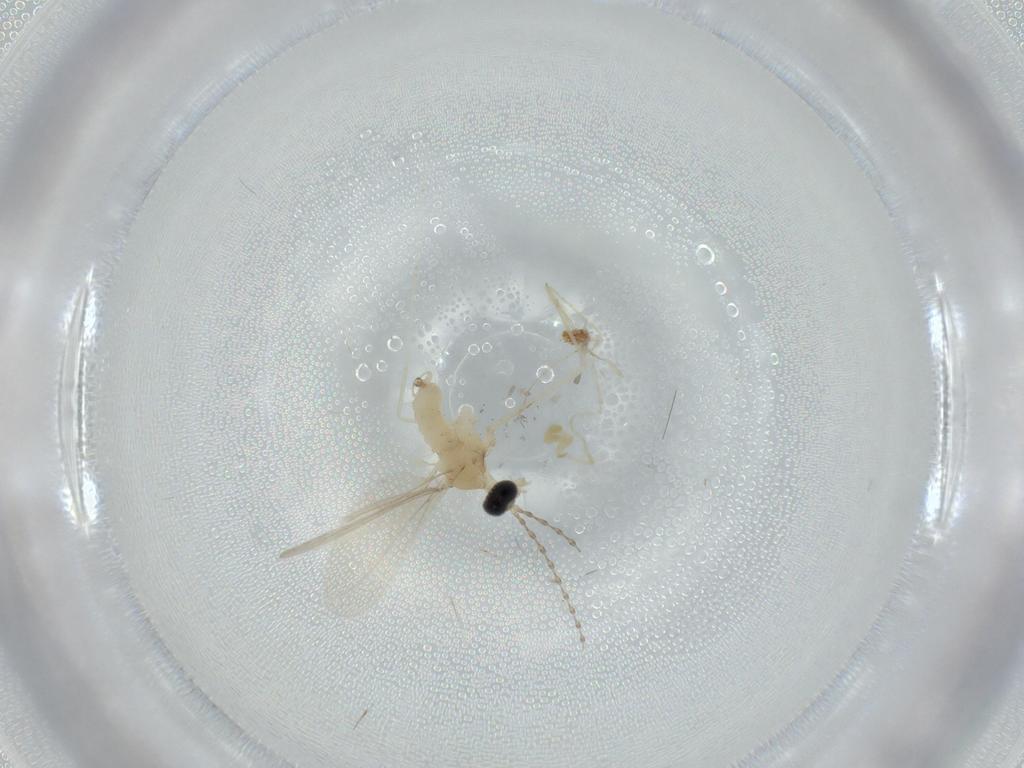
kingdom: Animalia
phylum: Arthropoda
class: Insecta
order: Diptera
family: Cecidomyiidae
